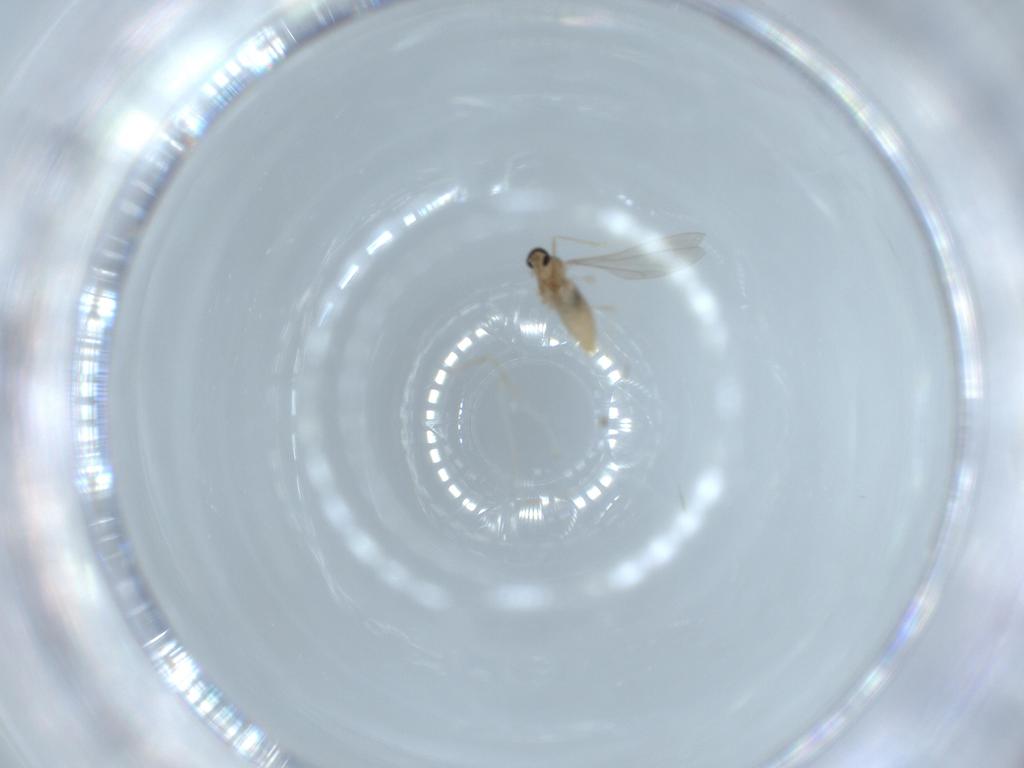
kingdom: Animalia
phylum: Arthropoda
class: Insecta
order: Diptera
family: Cecidomyiidae
